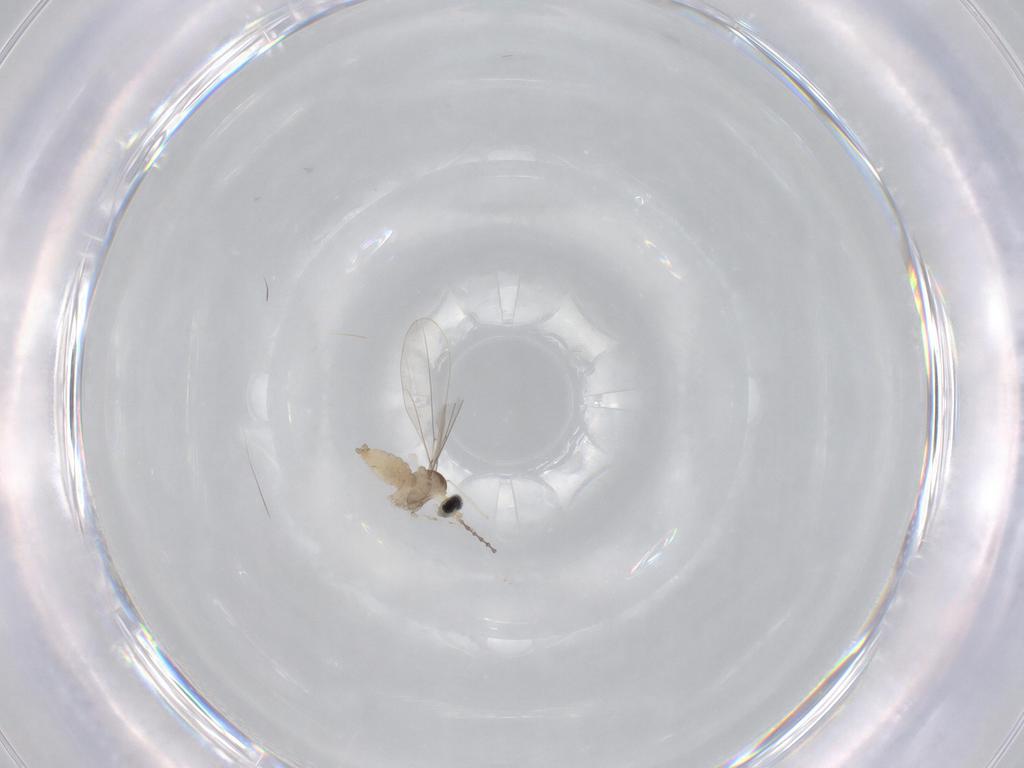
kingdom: Animalia
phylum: Arthropoda
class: Insecta
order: Diptera
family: Cecidomyiidae
